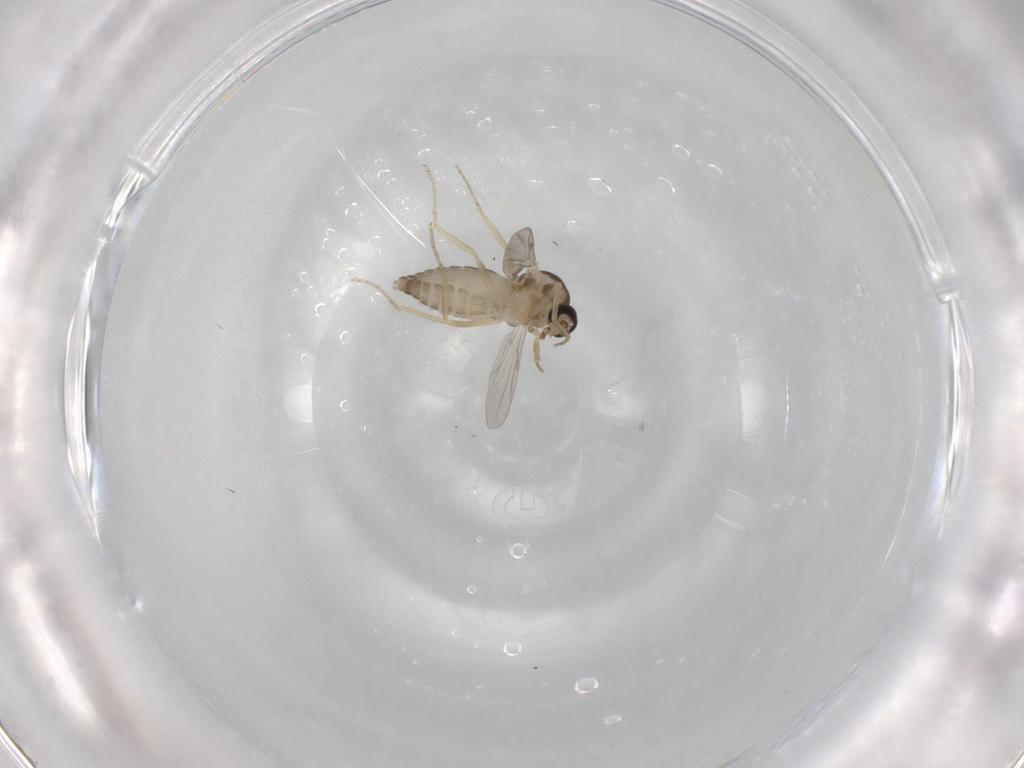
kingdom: Animalia
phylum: Arthropoda
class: Insecta
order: Diptera
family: Ceratopogonidae
